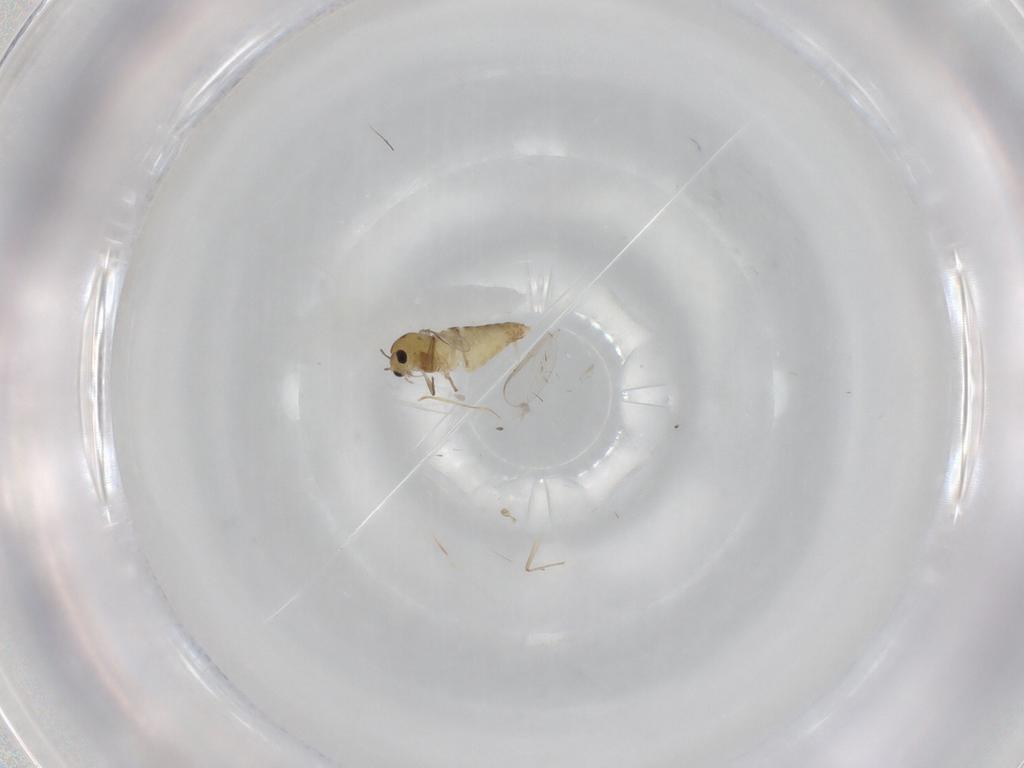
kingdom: Animalia
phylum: Arthropoda
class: Insecta
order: Diptera
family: Chironomidae
